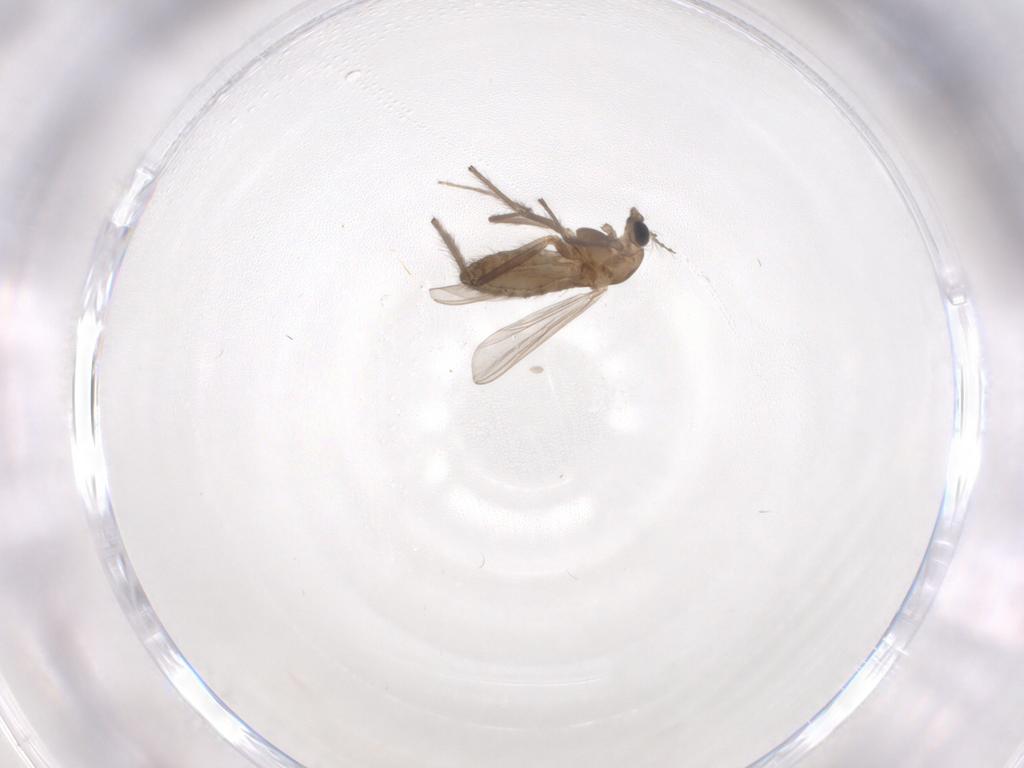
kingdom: Animalia
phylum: Arthropoda
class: Insecta
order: Diptera
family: Chironomidae
